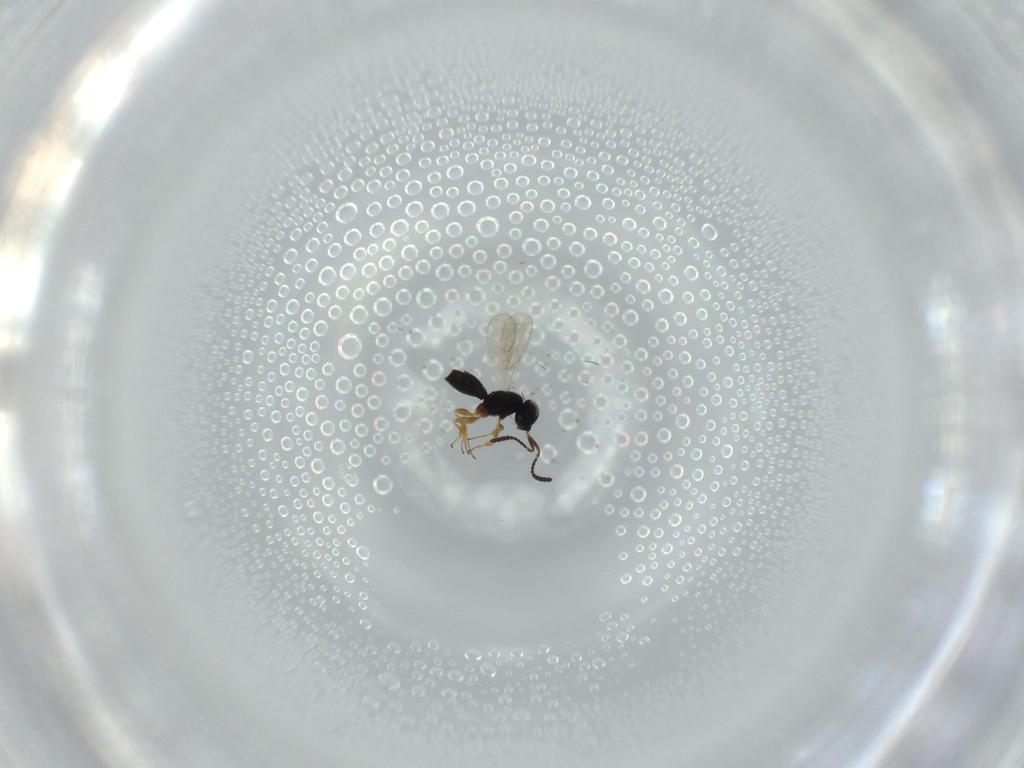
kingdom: Animalia
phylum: Arthropoda
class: Insecta
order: Hymenoptera
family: Scelionidae
